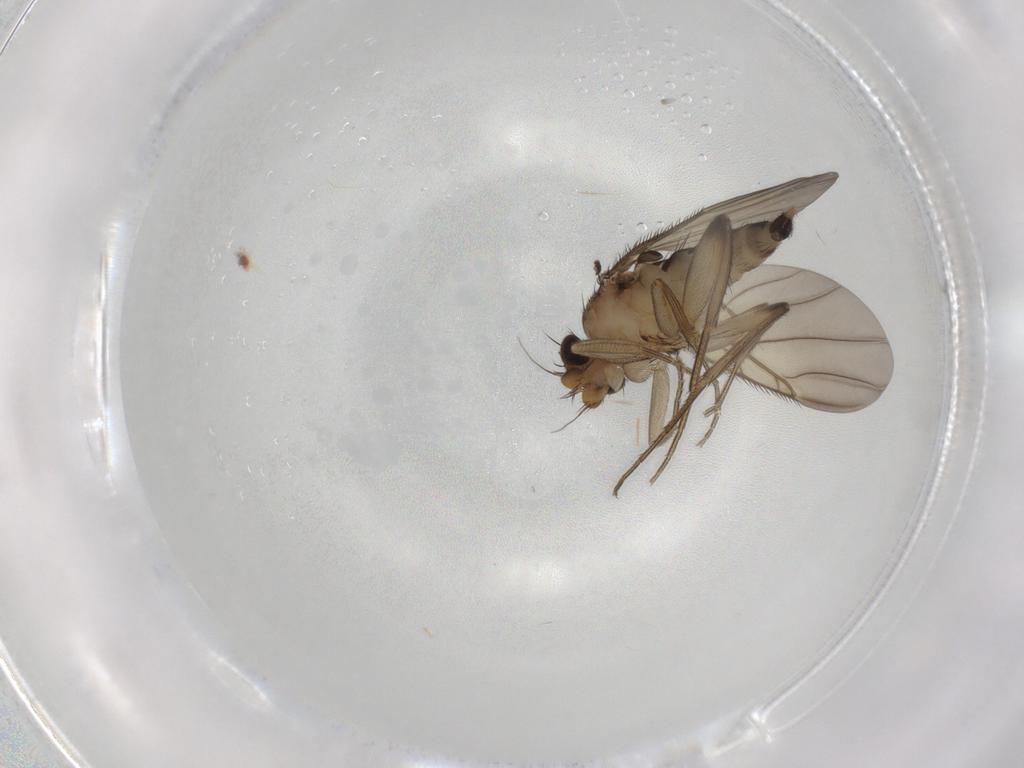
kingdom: Animalia
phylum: Arthropoda
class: Insecta
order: Diptera
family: Phoridae
